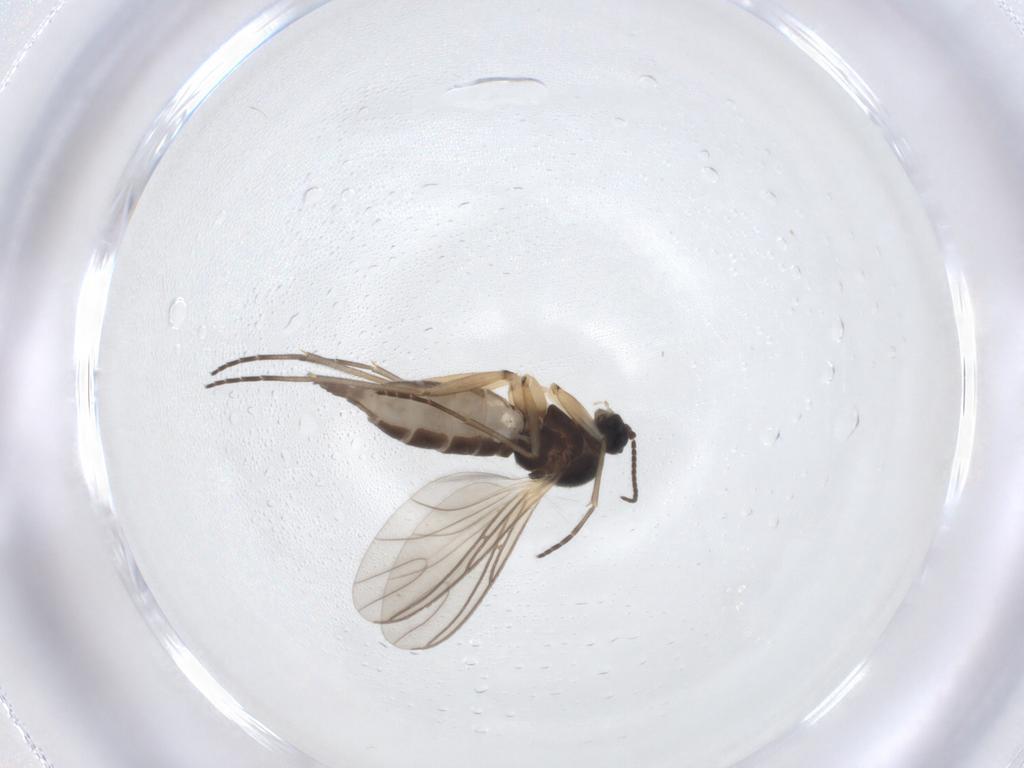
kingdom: Animalia
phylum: Arthropoda
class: Insecta
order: Diptera
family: Sciaridae
